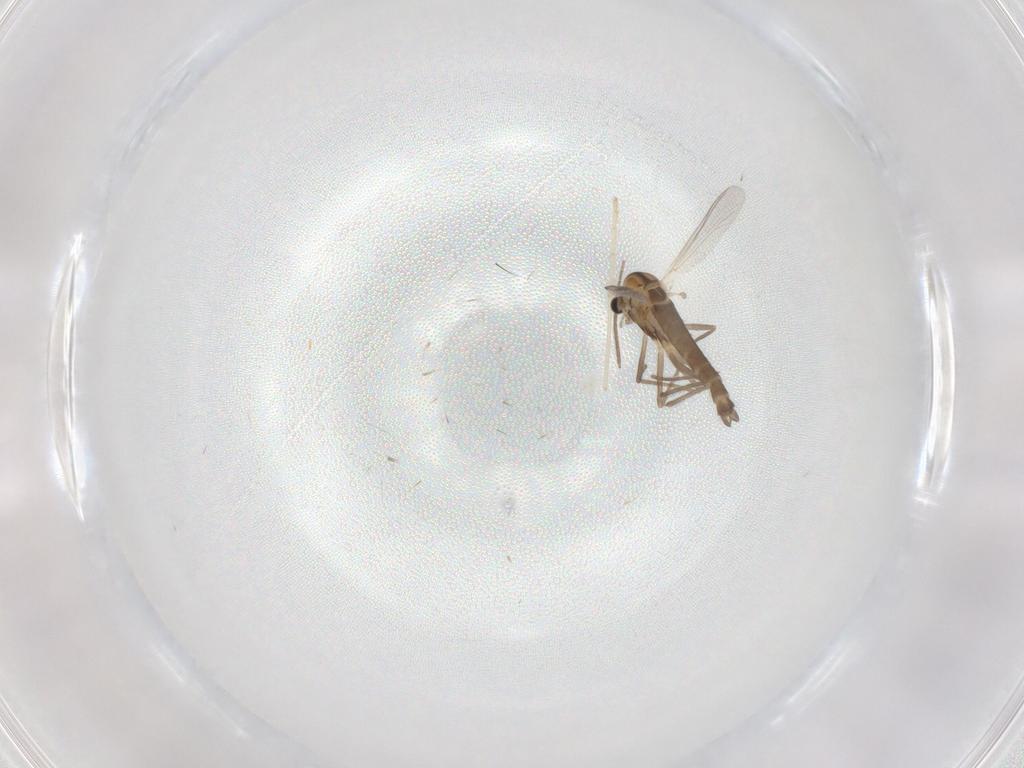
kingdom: Animalia
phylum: Arthropoda
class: Insecta
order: Diptera
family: Chironomidae
